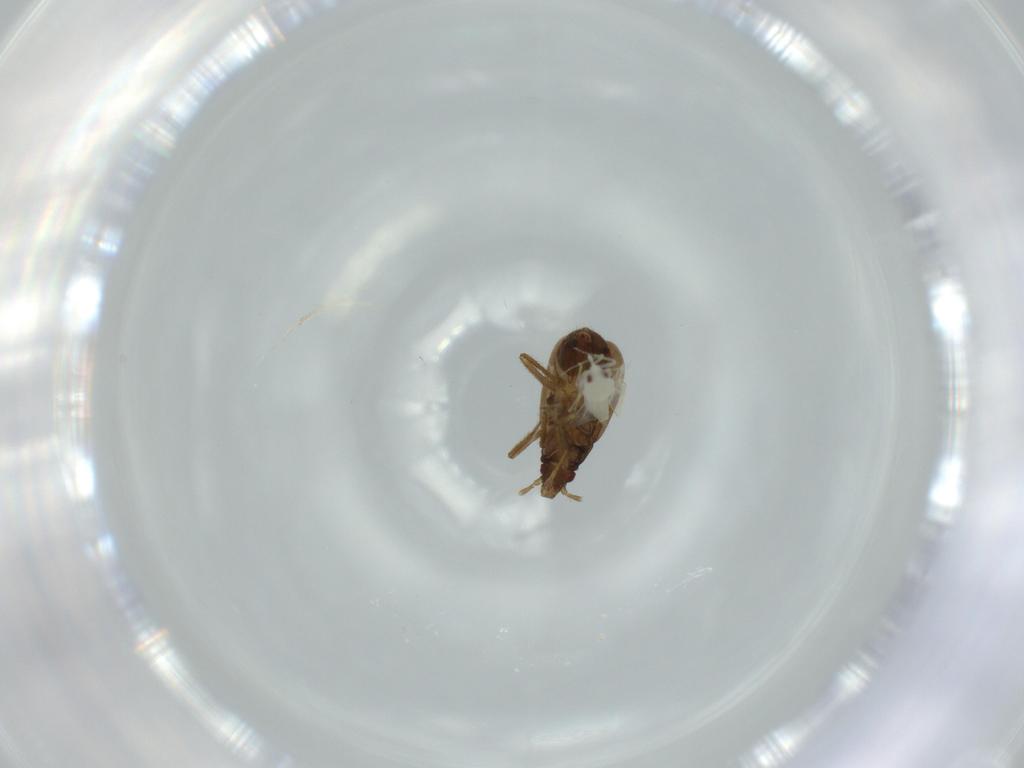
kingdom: Animalia
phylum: Arthropoda
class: Insecta
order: Hemiptera
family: Ceratocombidae
